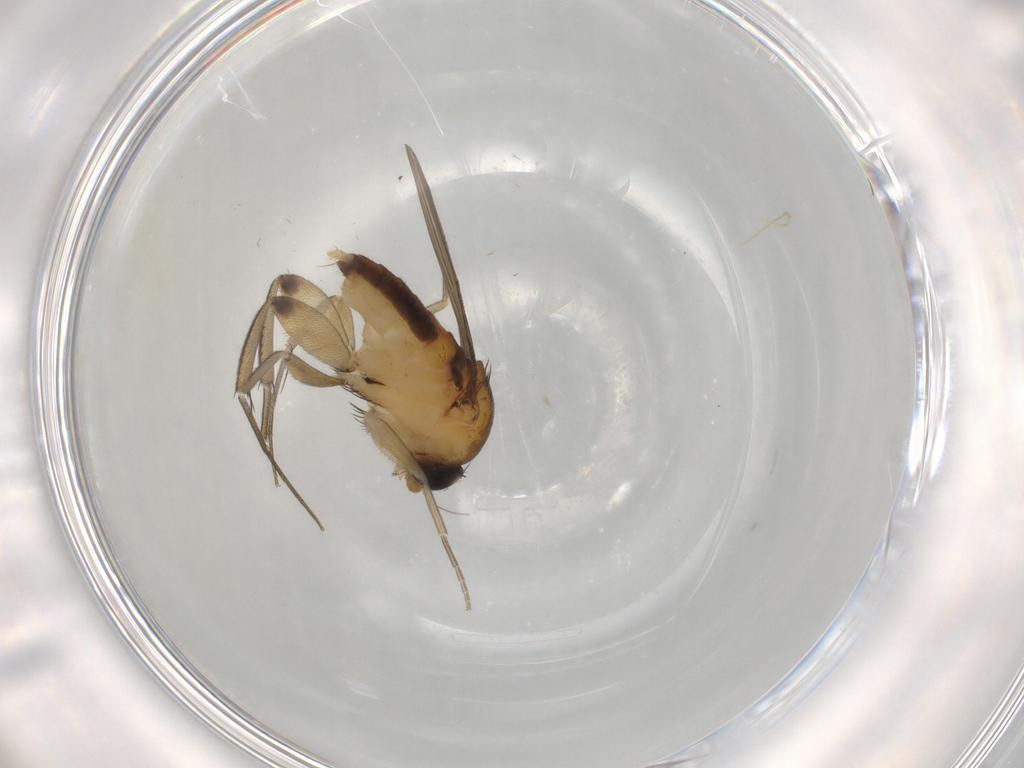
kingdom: Animalia
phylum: Arthropoda
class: Insecta
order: Diptera
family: Phoridae
